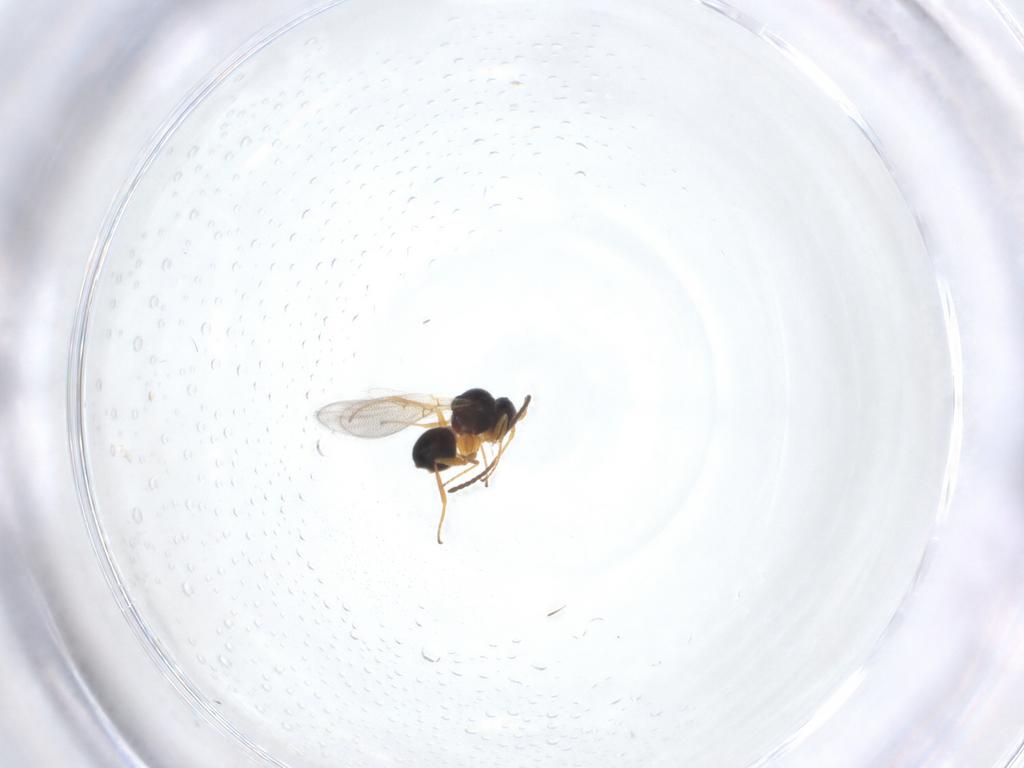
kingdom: Animalia
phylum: Arthropoda
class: Insecta
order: Hymenoptera
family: Figitidae
